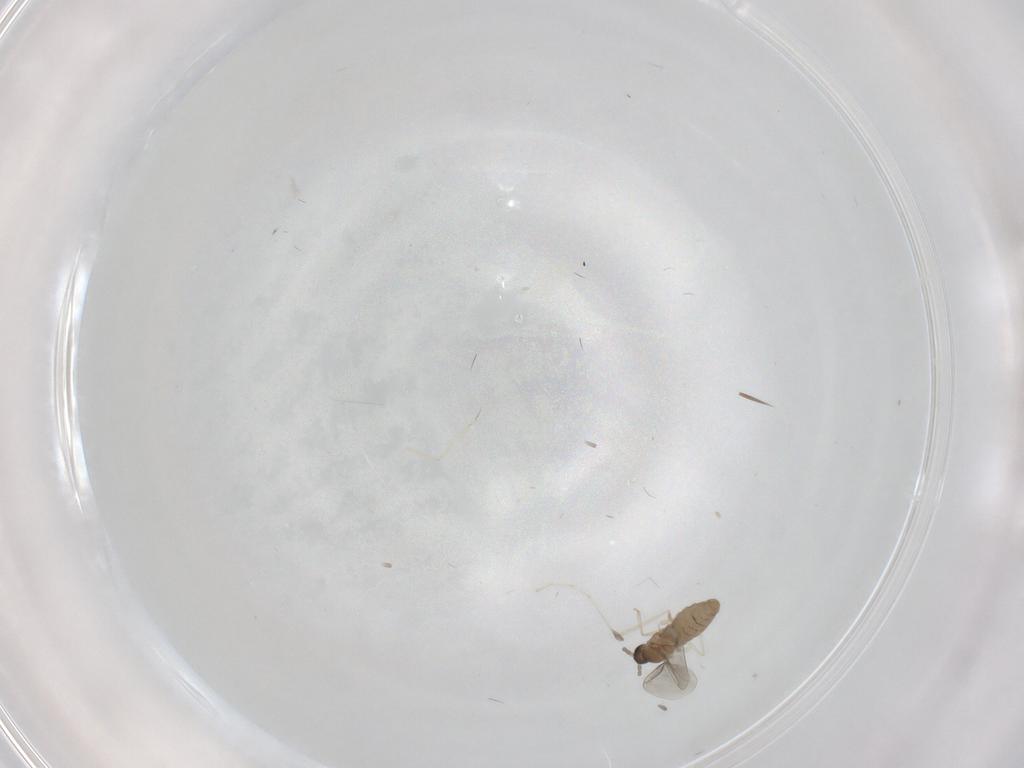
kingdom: Animalia
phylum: Arthropoda
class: Insecta
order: Diptera
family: Cecidomyiidae
